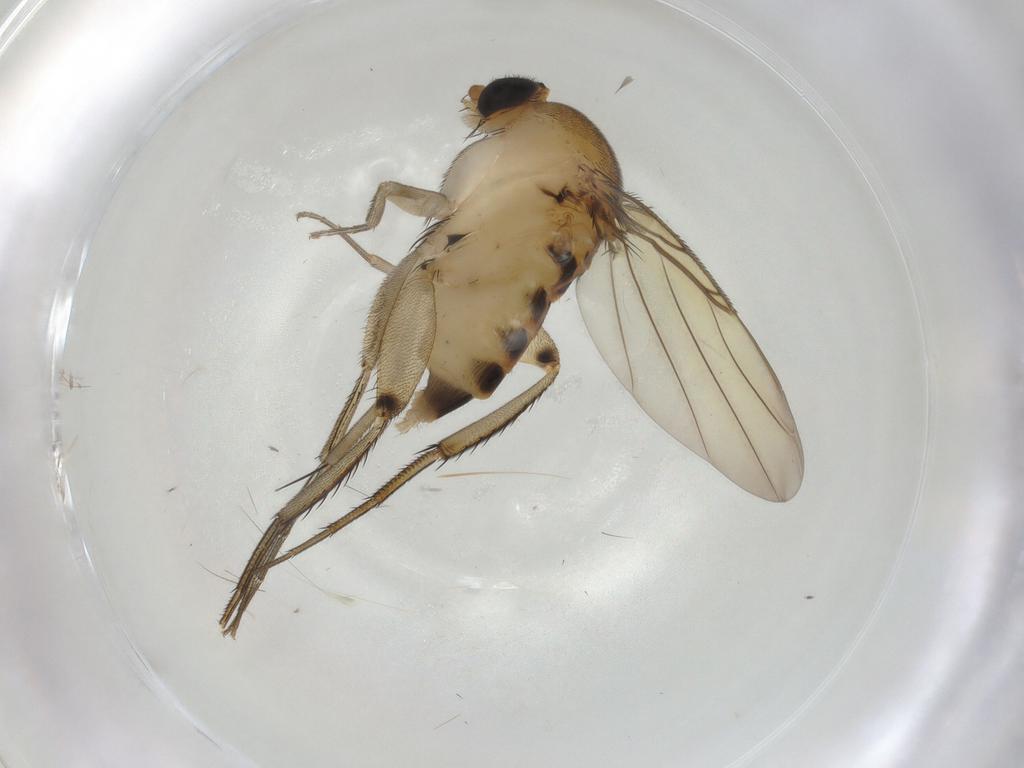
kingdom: Animalia
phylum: Arthropoda
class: Insecta
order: Diptera
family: Phoridae
